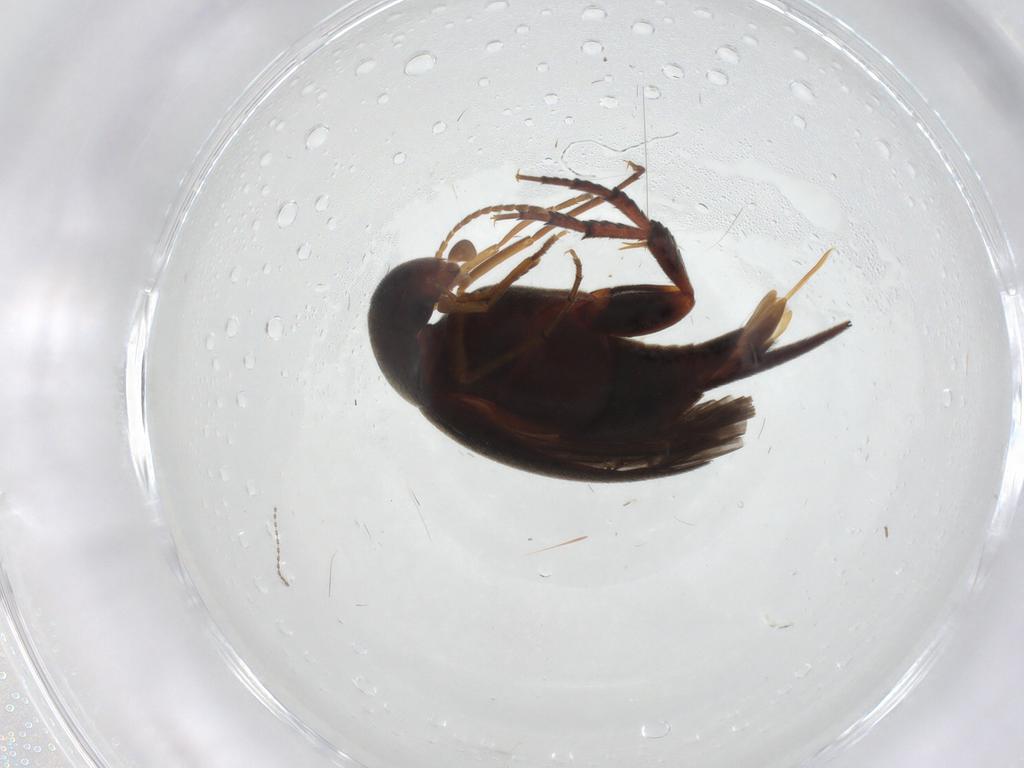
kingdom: Animalia
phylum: Arthropoda
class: Insecta
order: Coleoptera
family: Mordellidae
